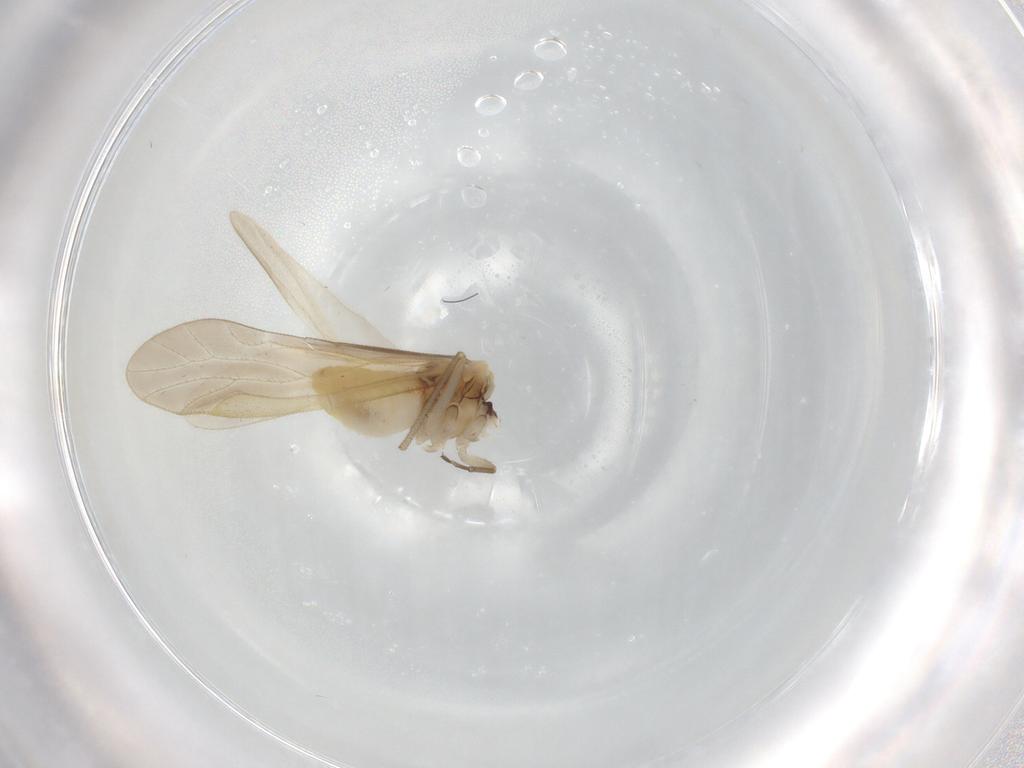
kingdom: Animalia
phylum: Arthropoda
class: Insecta
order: Psocodea
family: Caeciliusidae
